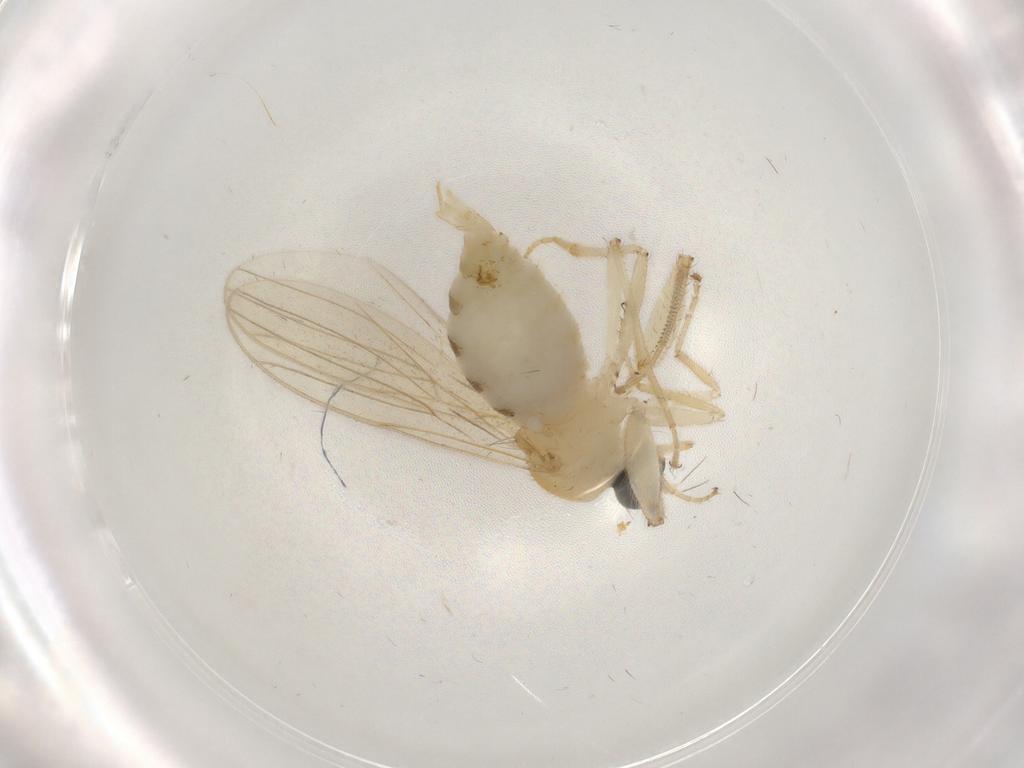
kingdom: Animalia
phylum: Arthropoda
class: Insecta
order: Diptera
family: Hybotidae
